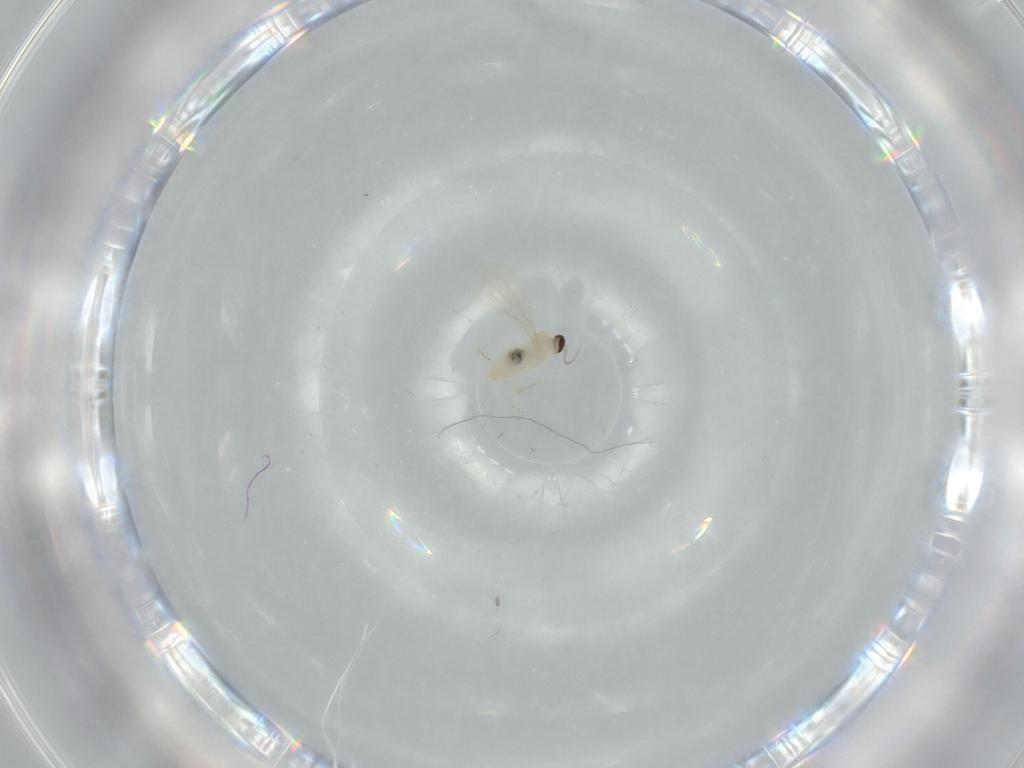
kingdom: Animalia
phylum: Arthropoda
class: Insecta
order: Diptera
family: Cecidomyiidae
